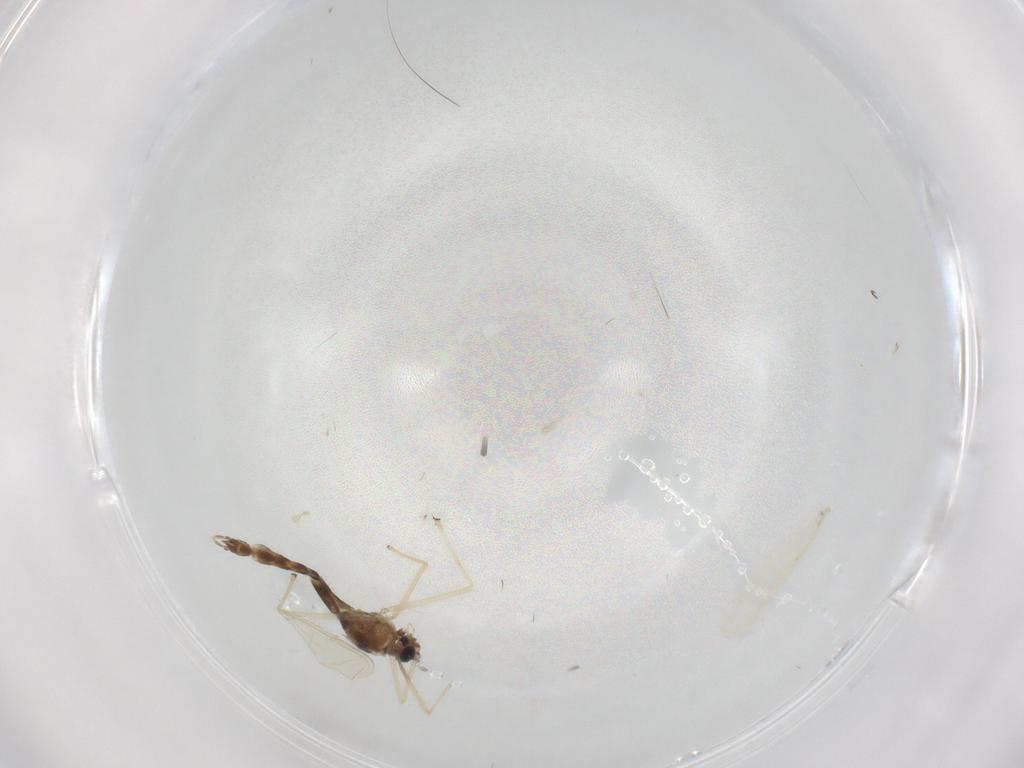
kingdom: Animalia
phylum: Arthropoda
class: Insecta
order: Diptera
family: Chironomidae
